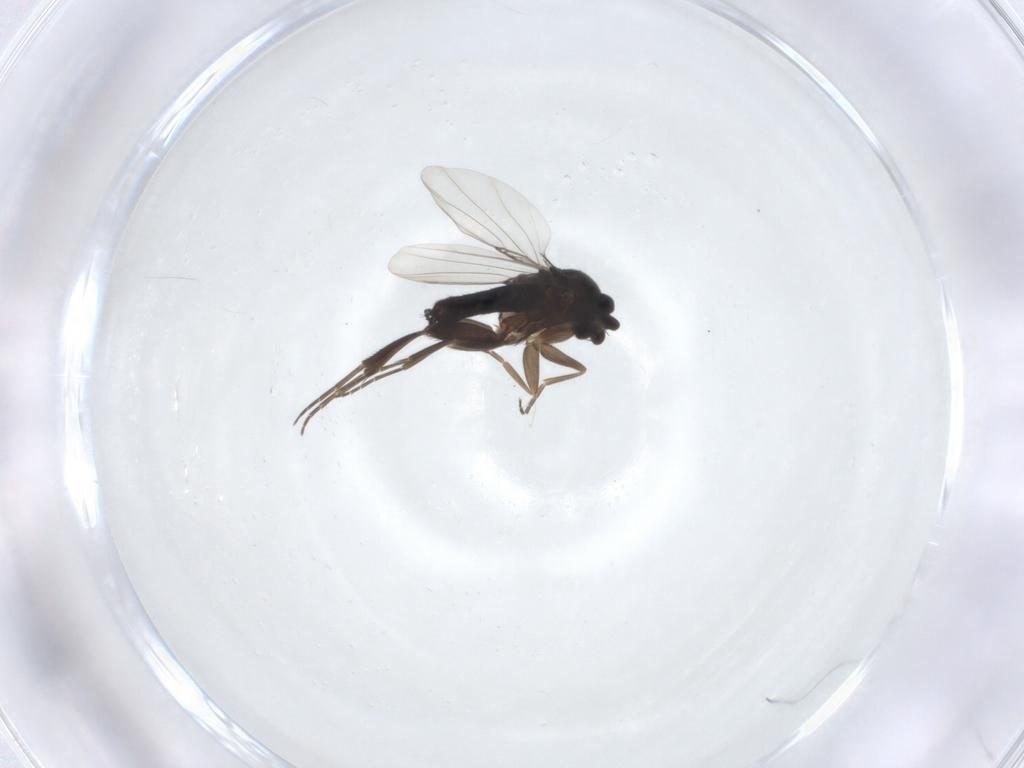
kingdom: Animalia
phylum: Arthropoda
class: Insecta
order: Diptera
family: Phoridae
